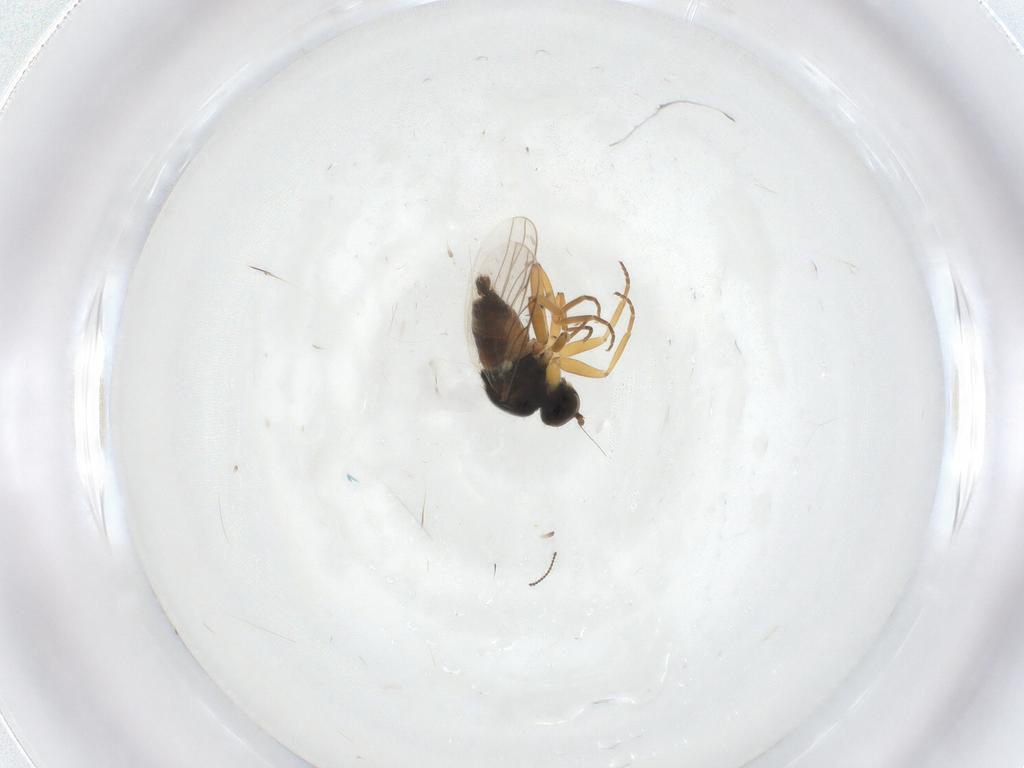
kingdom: Animalia
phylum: Arthropoda
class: Insecta
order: Diptera
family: Hybotidae
